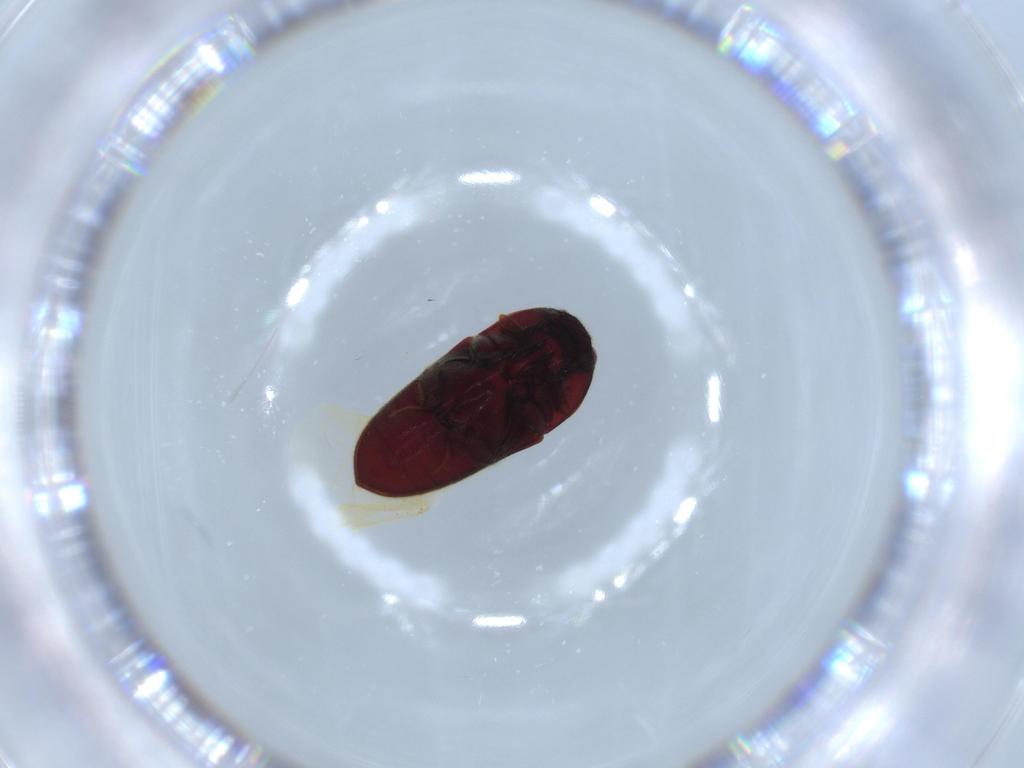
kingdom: Animalia
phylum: Arthropoda
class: Insecta
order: Coleoptera
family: Throscidae
